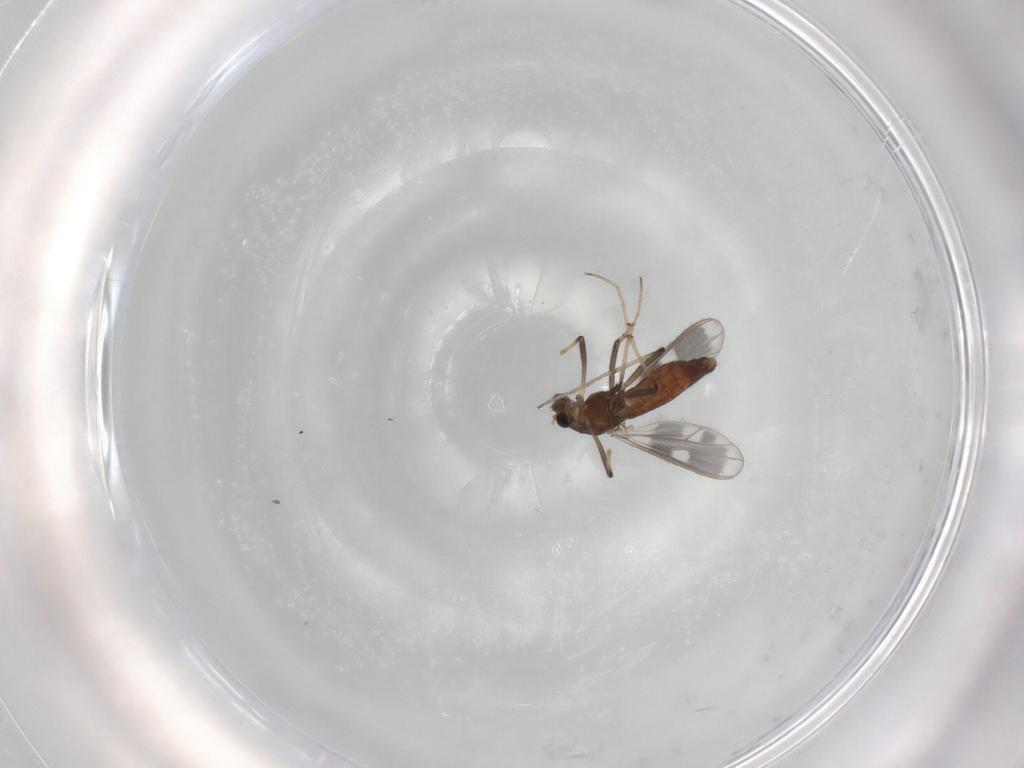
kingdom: Animalia
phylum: Arthropoda
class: Insecta
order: Diptera
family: Chironomidae
